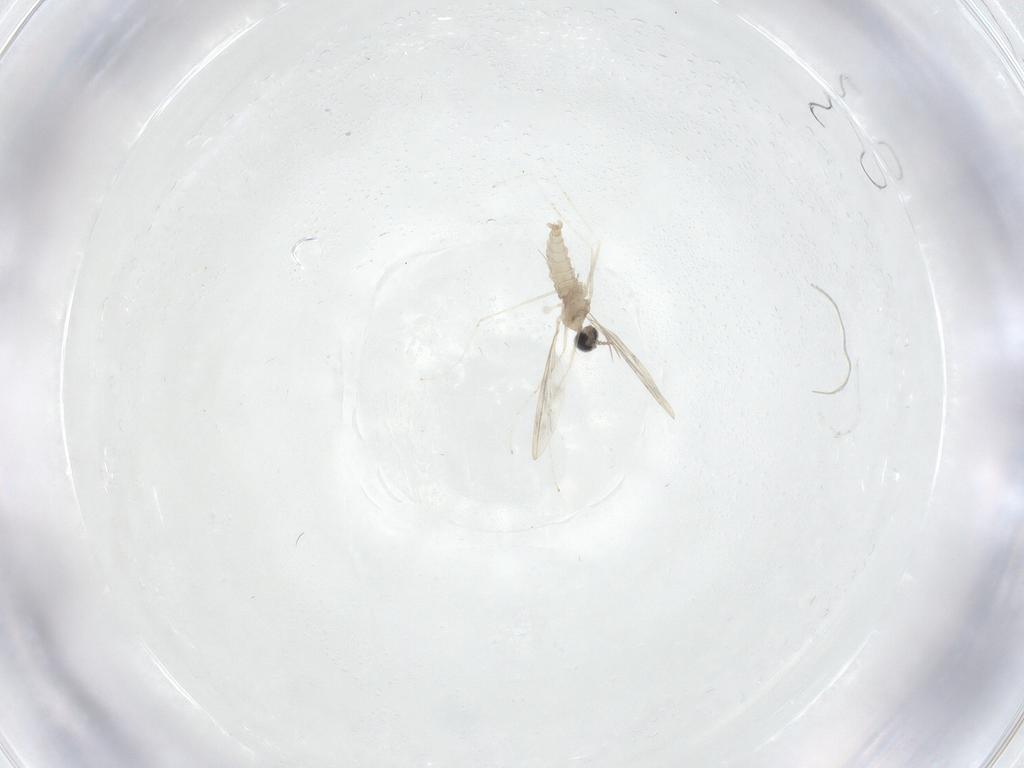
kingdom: Animalia
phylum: Arthropoda
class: Insecta
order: Diptera
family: Psychodidae
